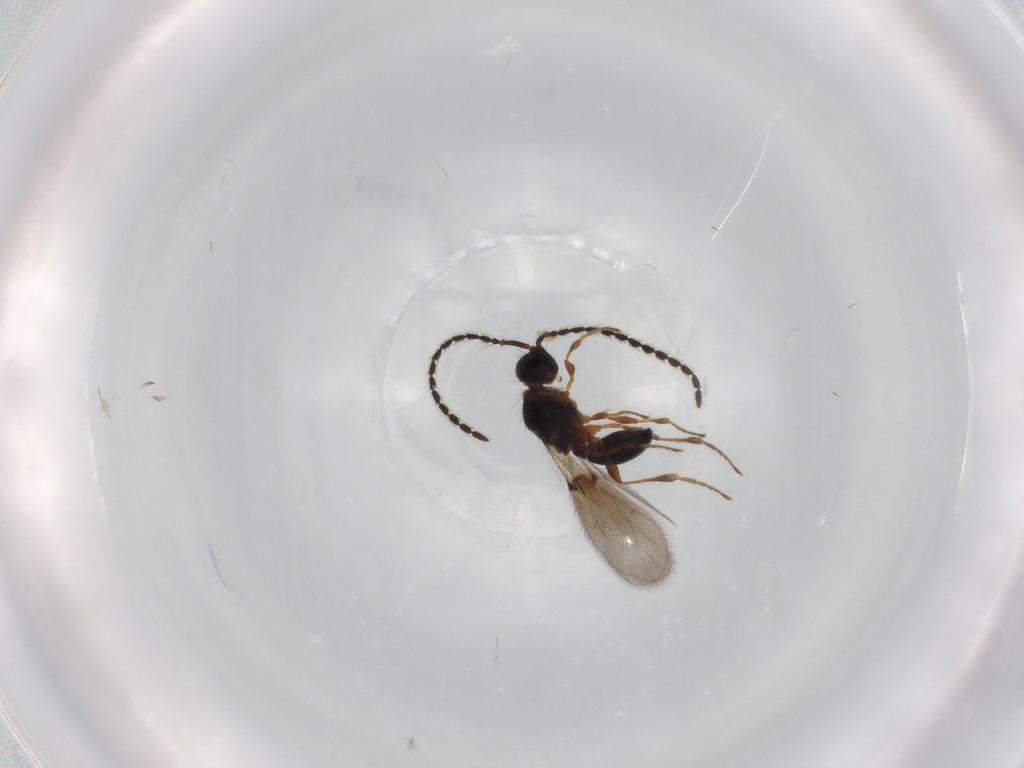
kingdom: Animalia
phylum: Arthropoda
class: Insecta
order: Hymenoptera
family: Diapriidae
